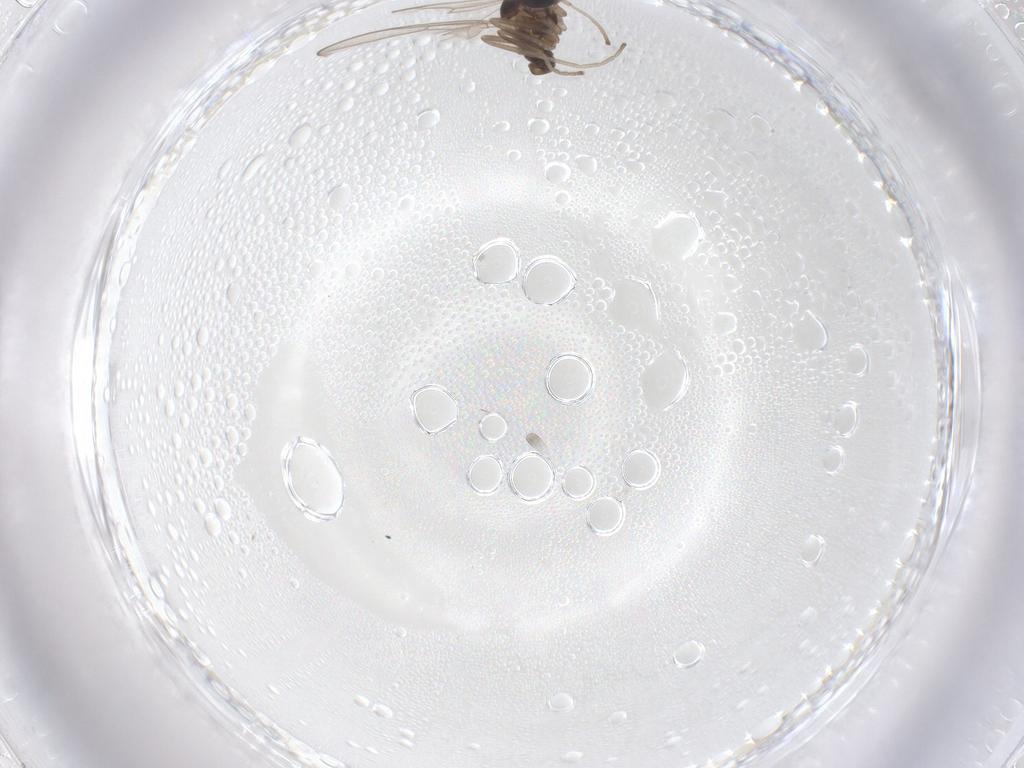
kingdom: Animalia
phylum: Arthropoda
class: Insecta
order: Diptera
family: Cecidomyiidae
